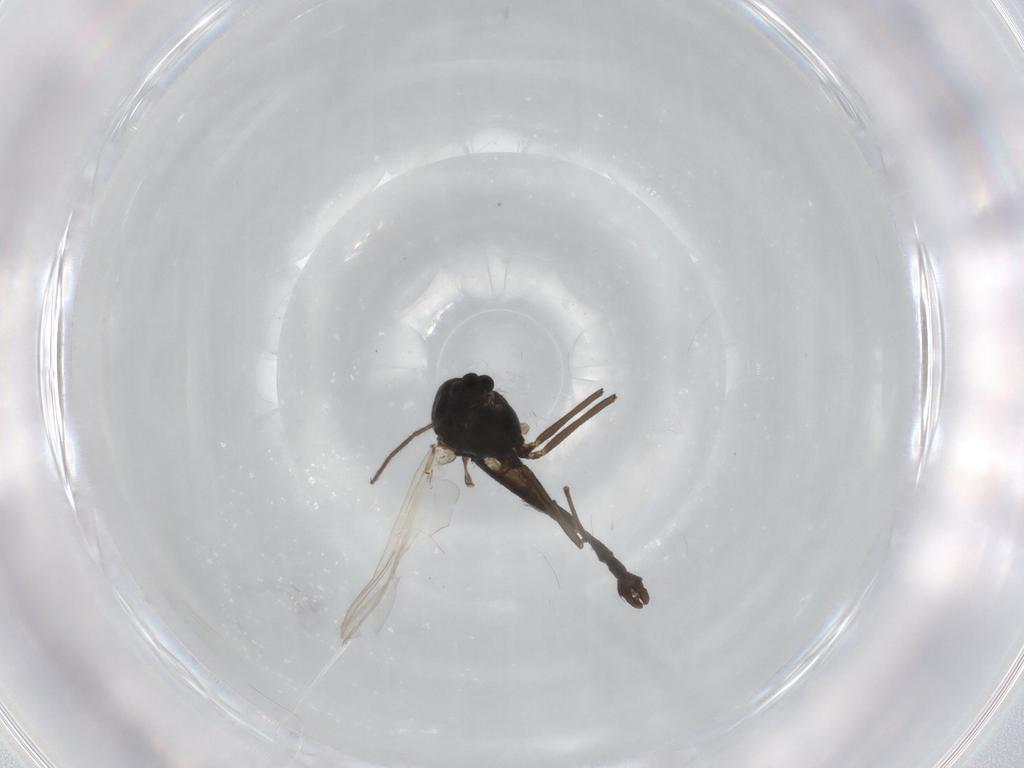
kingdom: Animalia
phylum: Arthropoda
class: Insecta
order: Diptera
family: Chironomidae
